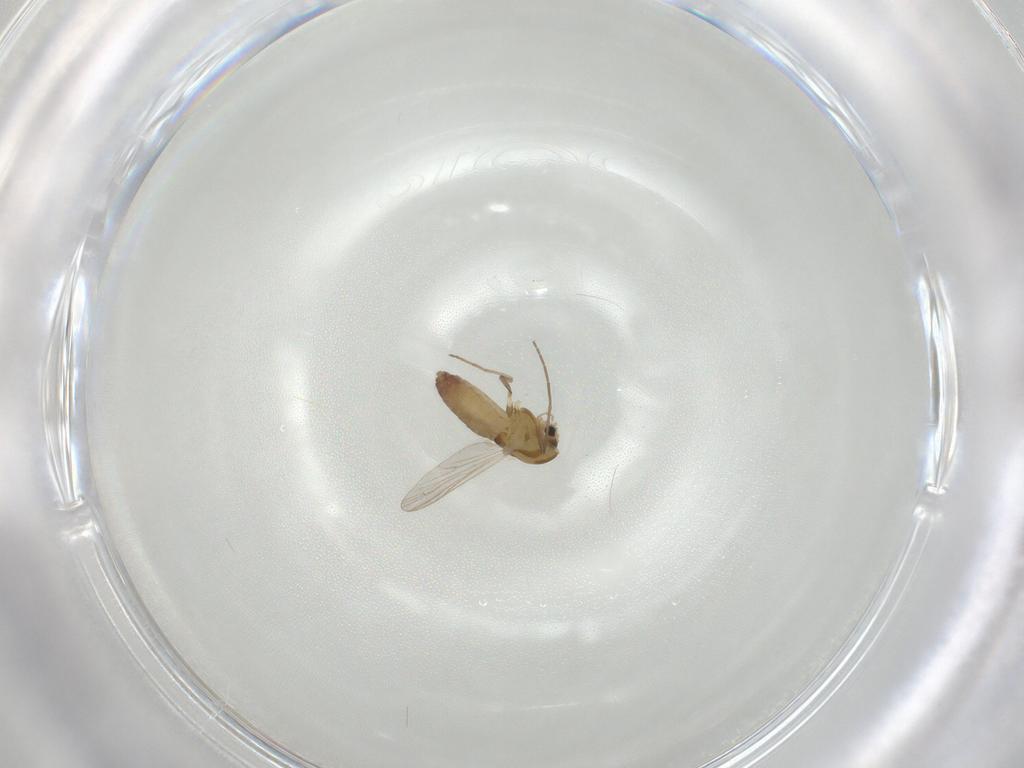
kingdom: Animalia
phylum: Arthropoda
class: Insecta
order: Diptera
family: Chironomidae
